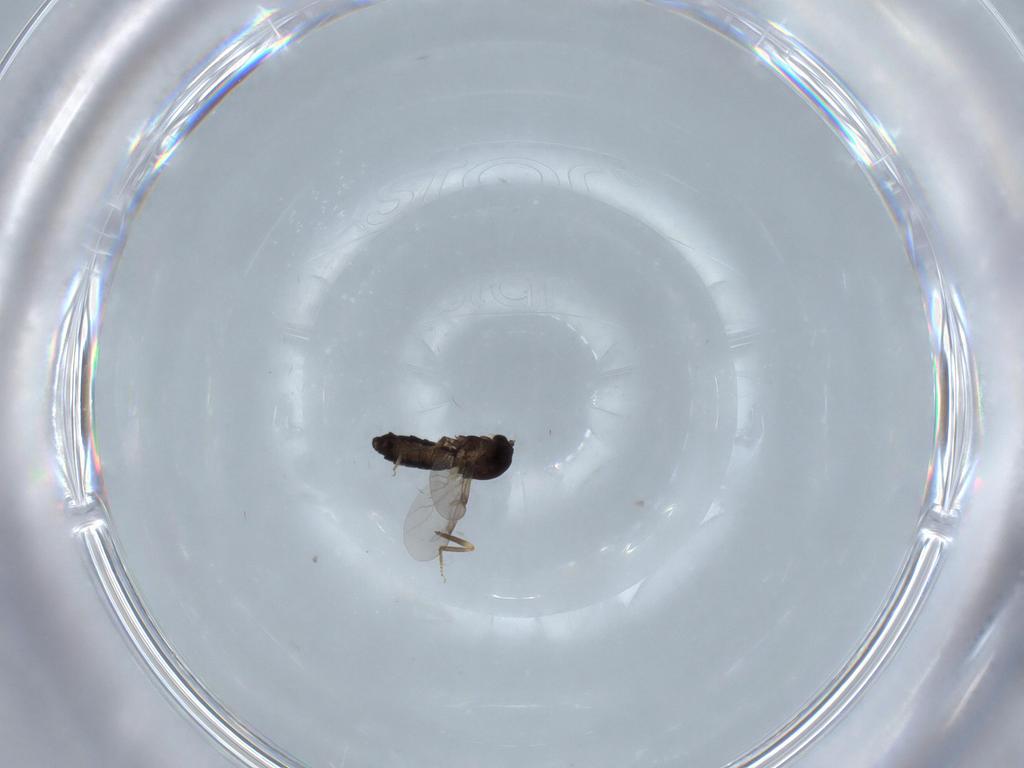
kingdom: Animalia
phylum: Arthropoda
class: Insecta
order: Diptera
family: Ceratopogonidae
